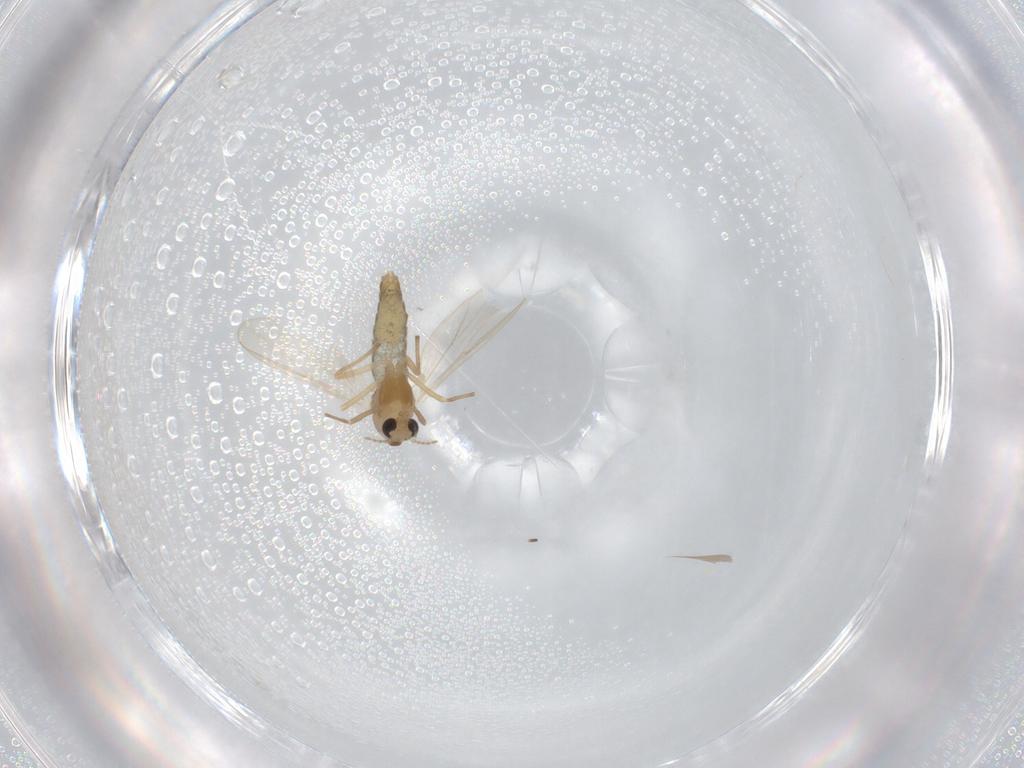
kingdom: Animalia
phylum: Arthropoda
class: Insecta
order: Diptera
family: Chironomidae
